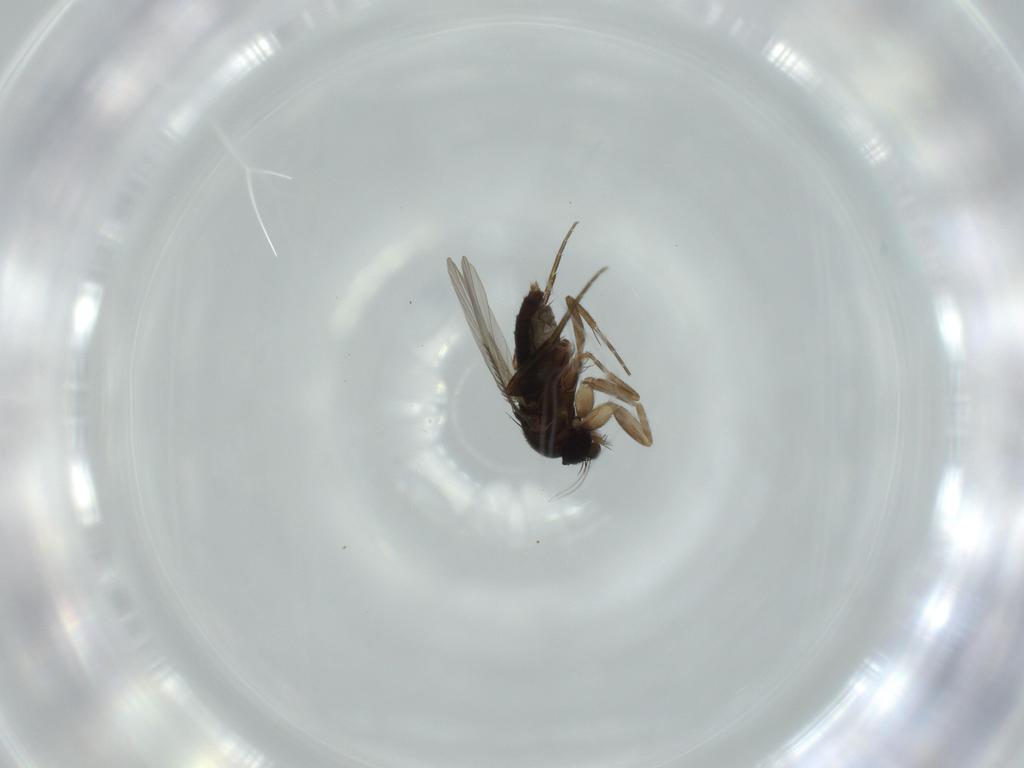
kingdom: Animalia
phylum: Arthropoda
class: Insecta
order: Diptera
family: Phoridae
